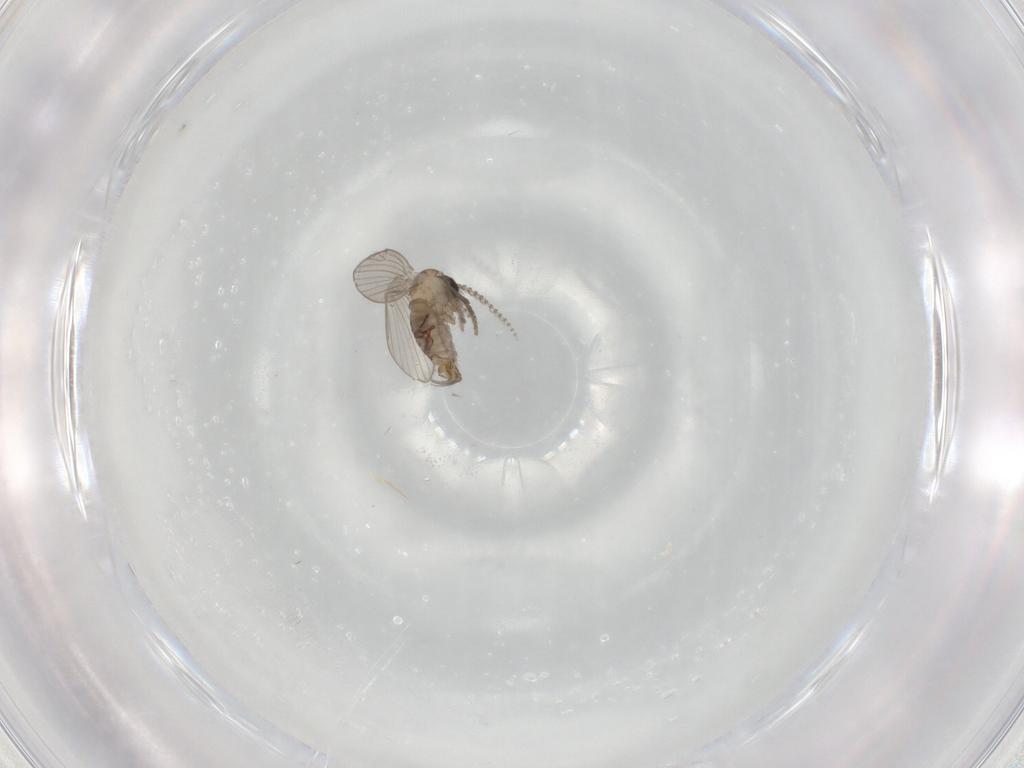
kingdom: Animalia
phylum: Arthropoda
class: Insecta
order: Diptera
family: Psychodidae
